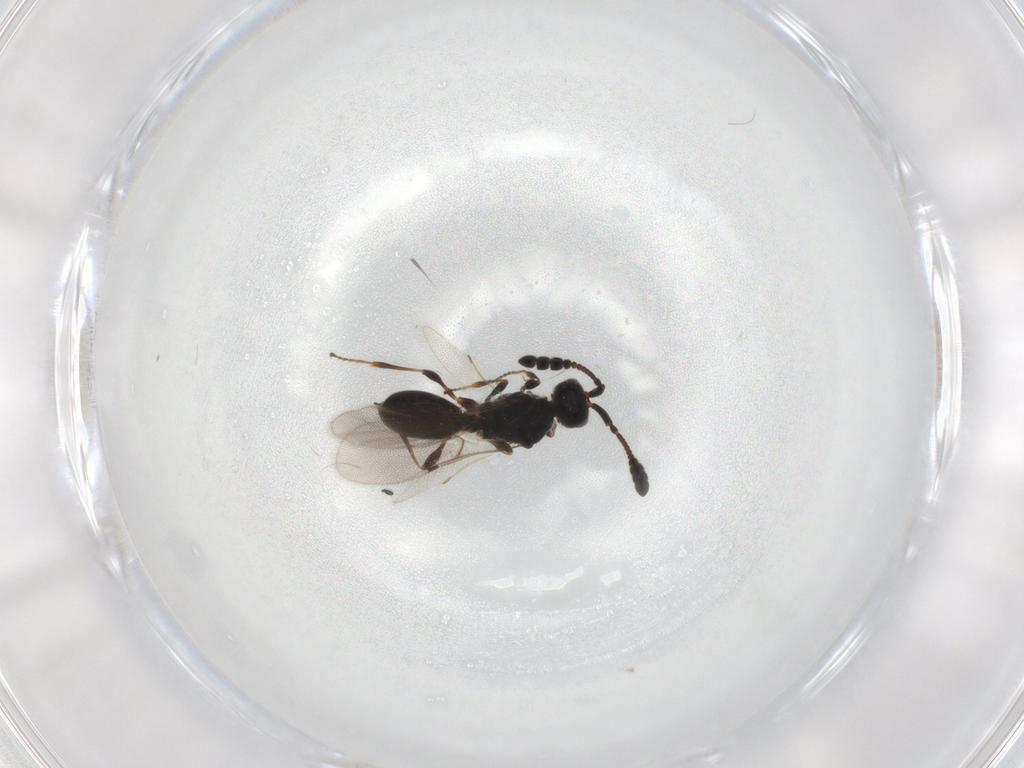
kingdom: Animalia
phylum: Arthropoda
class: Insecta
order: Hymenoptera
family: Diapriidae
